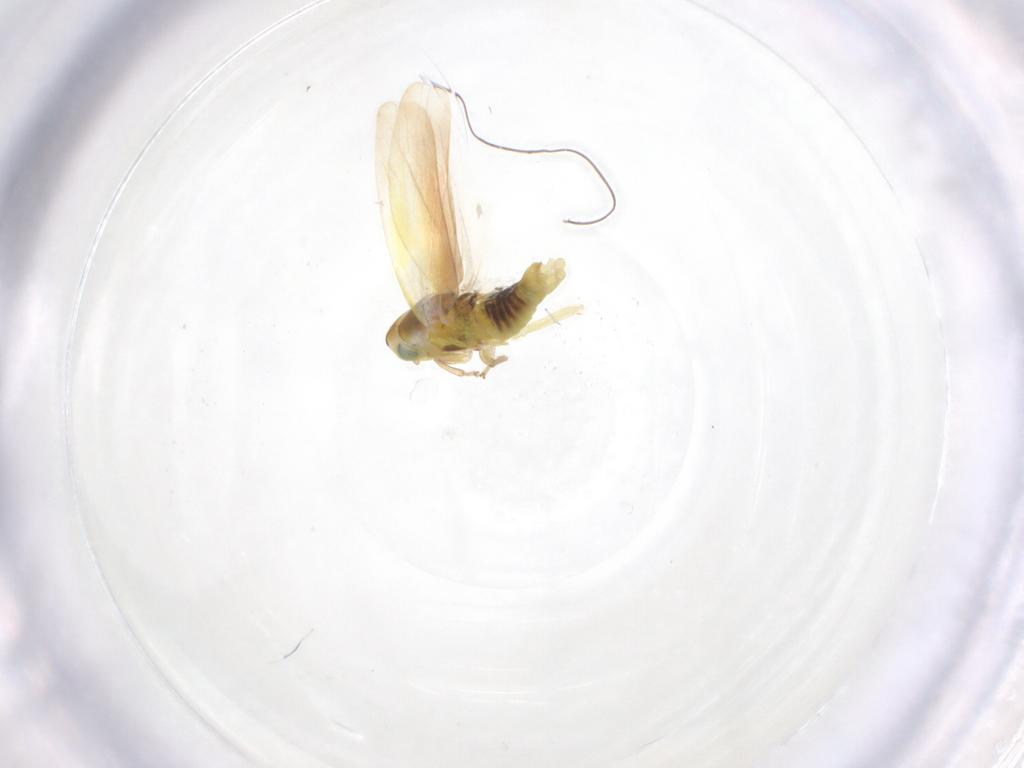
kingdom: Animalia
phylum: Arthropoda
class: Insecta
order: Hemiptera
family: Cicadellidae
